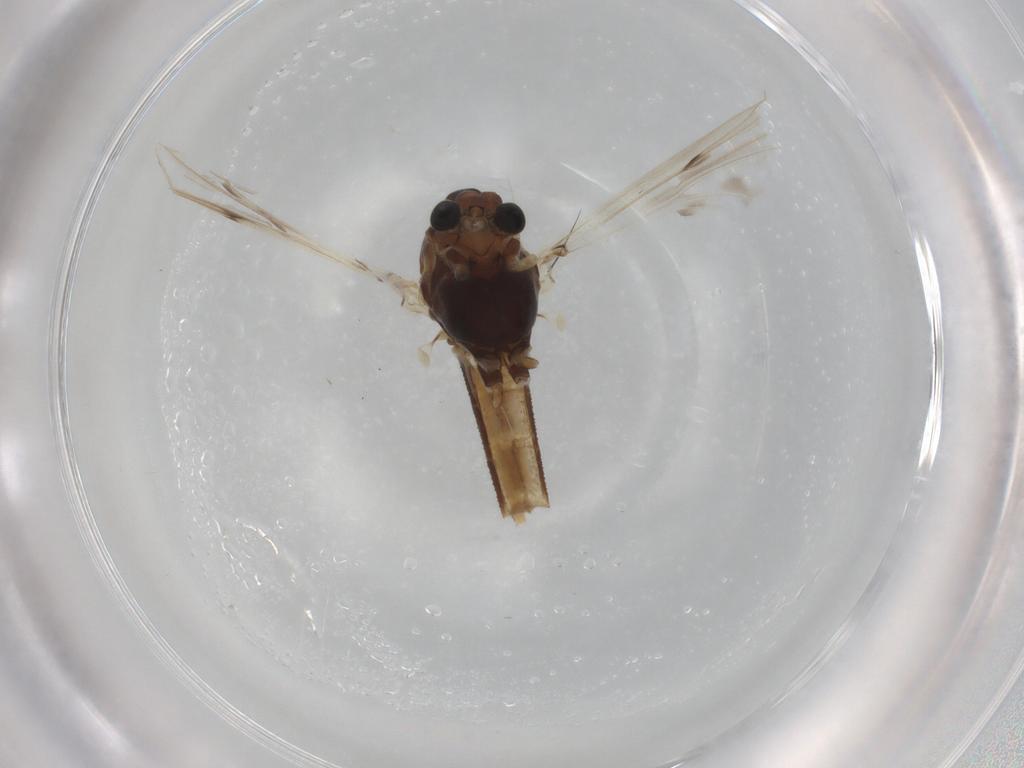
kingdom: Animalia
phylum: Arthropoda
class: Insecta
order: Diptera
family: Chironomidae
